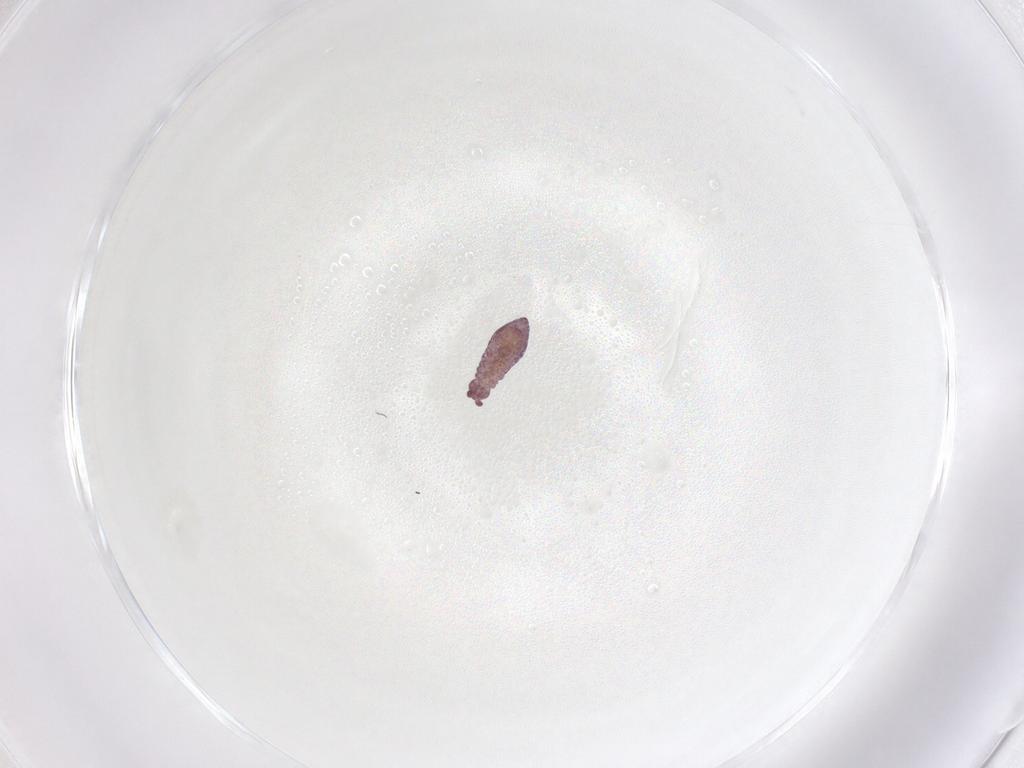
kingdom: Animalia
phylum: Arthropoda
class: Collembola
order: Poduromorpha
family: Brachystomellidae
